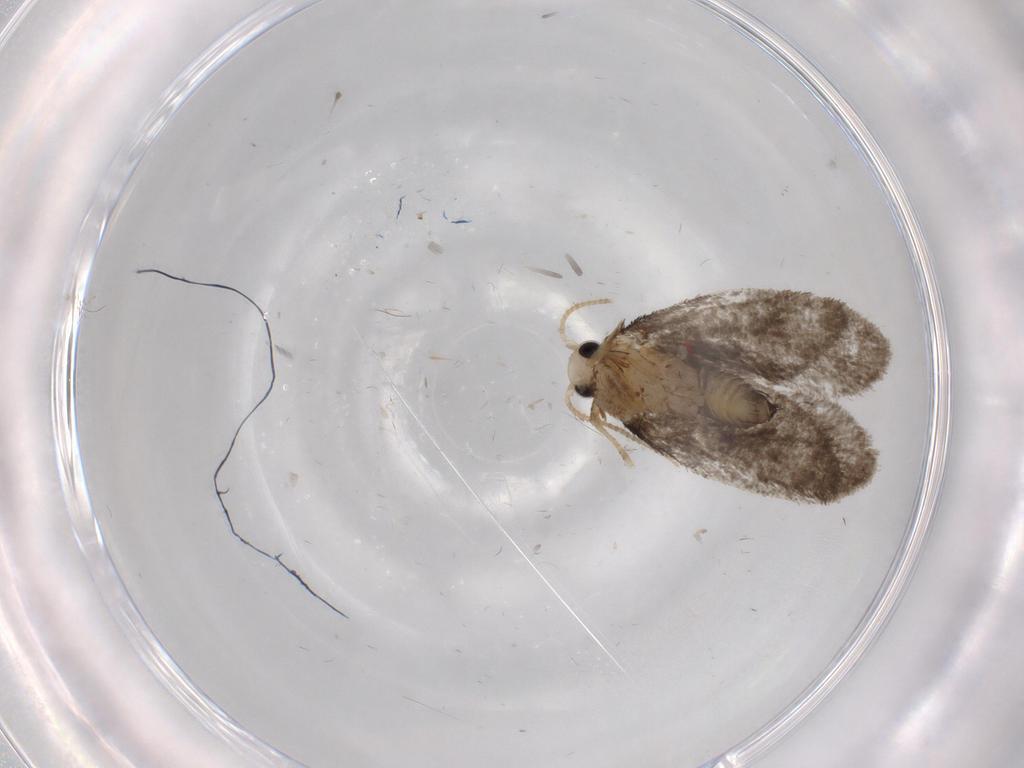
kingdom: Animalia
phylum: Arthropoda
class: Insecta
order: Lepidoptera
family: Psychidae
